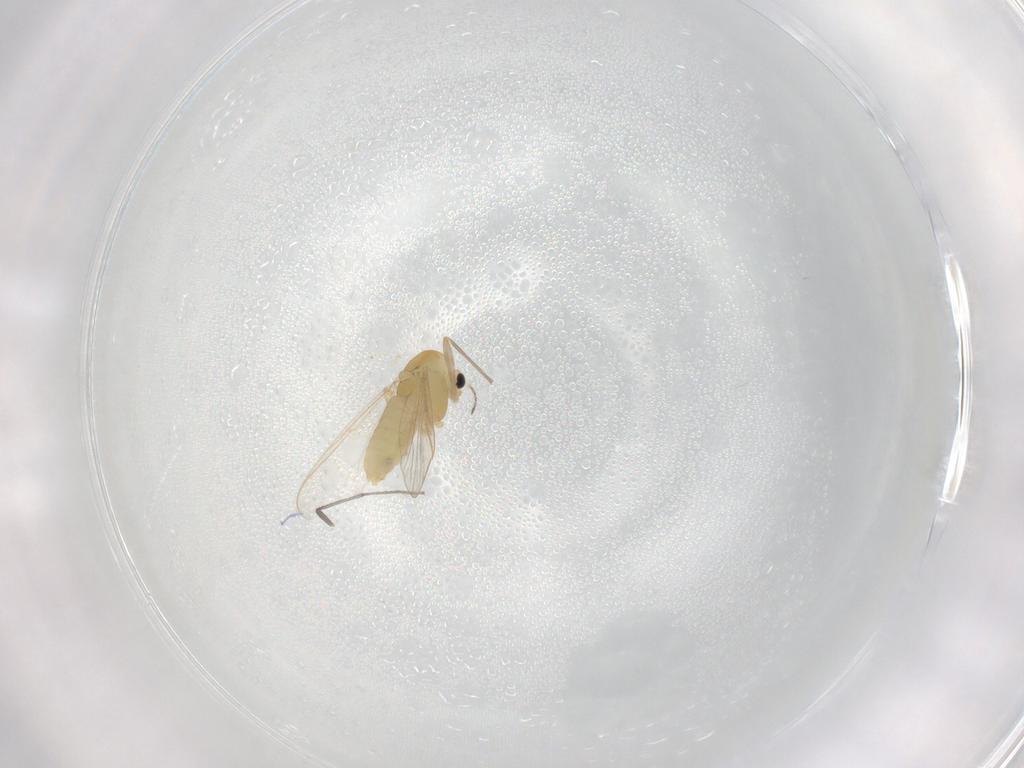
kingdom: Animalia
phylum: Arthropoda
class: Insecta
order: Diptera
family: Chironomidae
